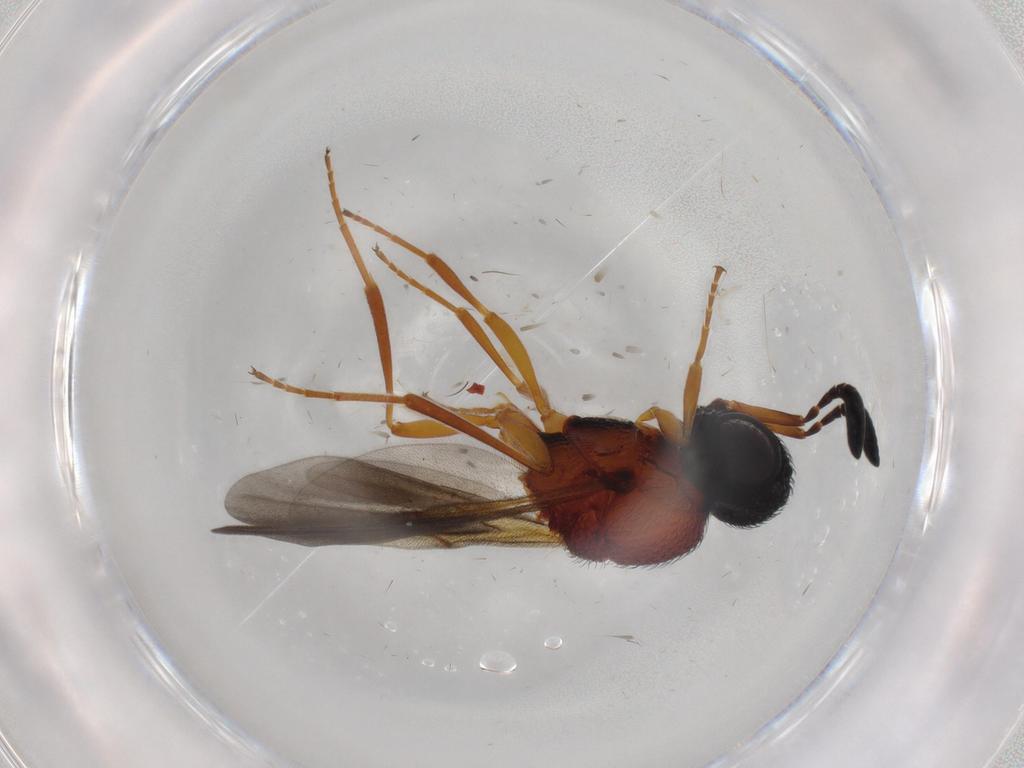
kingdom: Animalia
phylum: Arthropoda
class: Insecta
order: Hymenoptera
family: Scelionidae
